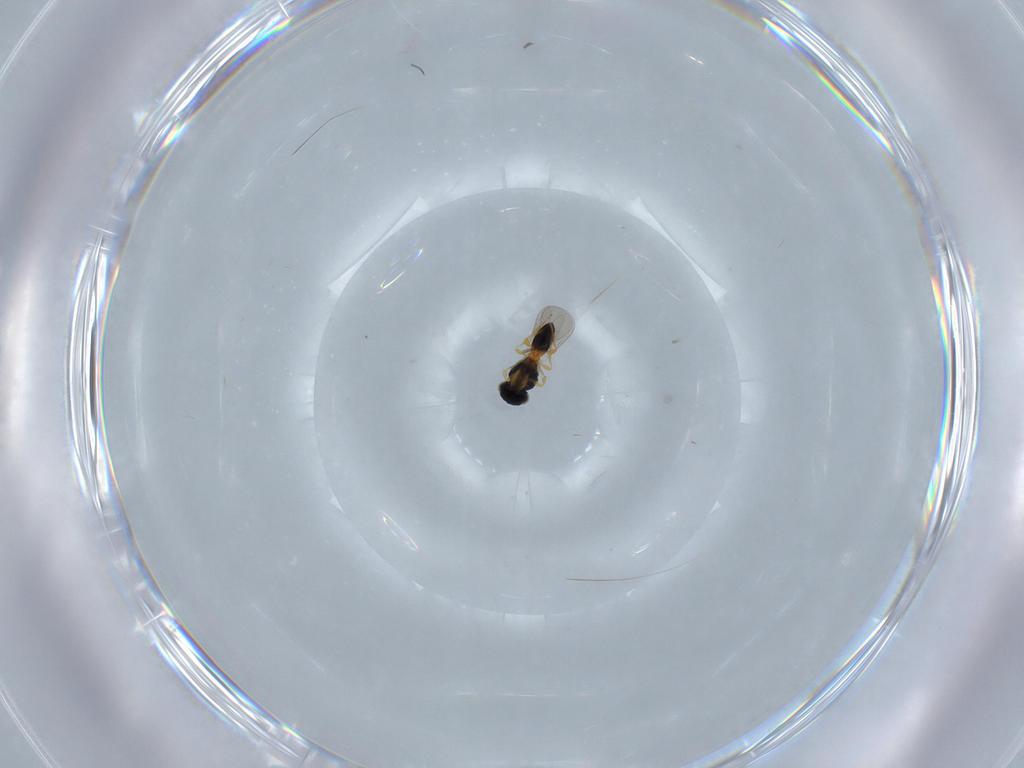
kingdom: Animalia
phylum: Arthropoda
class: Insecta
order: Hymenoptera
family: Platygastridae
